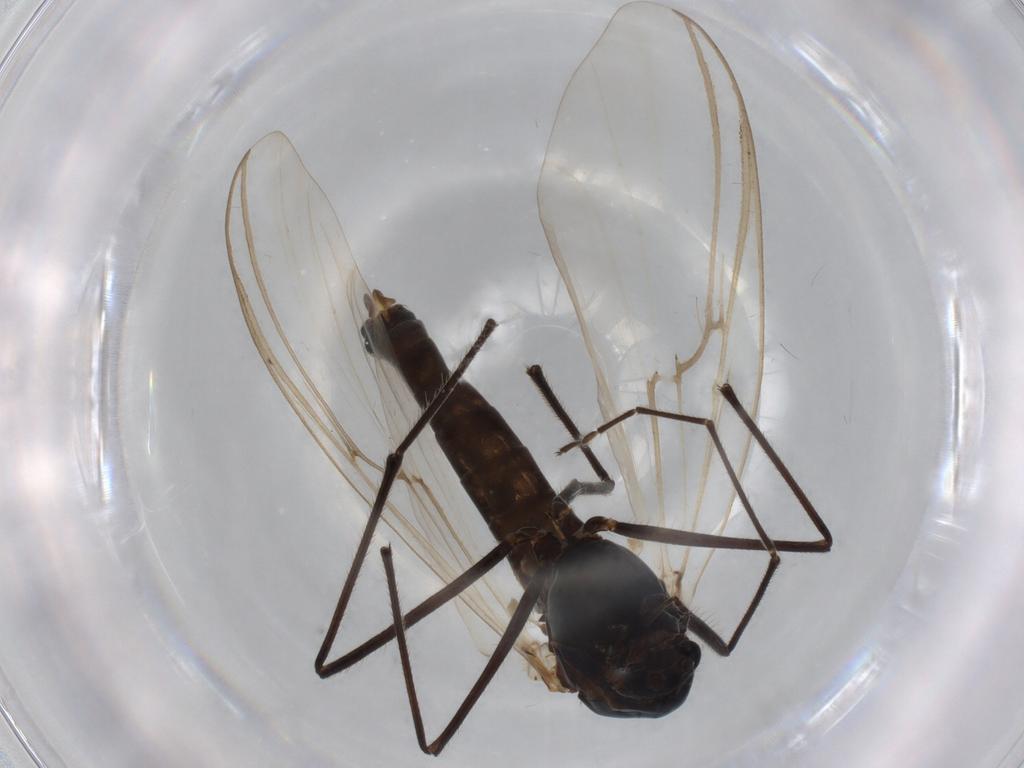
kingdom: Animalia
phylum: Arthropoda
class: Insecta
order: Diptera
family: Chironomidae
